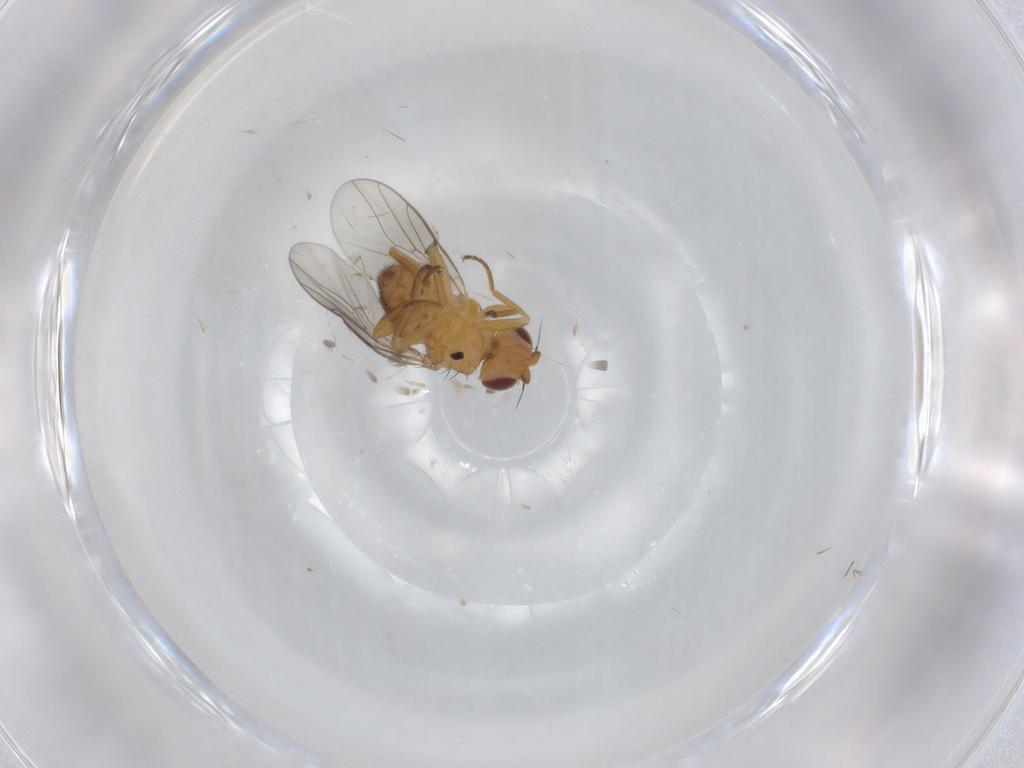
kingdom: Animalia
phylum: Arthropoda
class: Insecta
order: Diptera
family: Chloropidae
